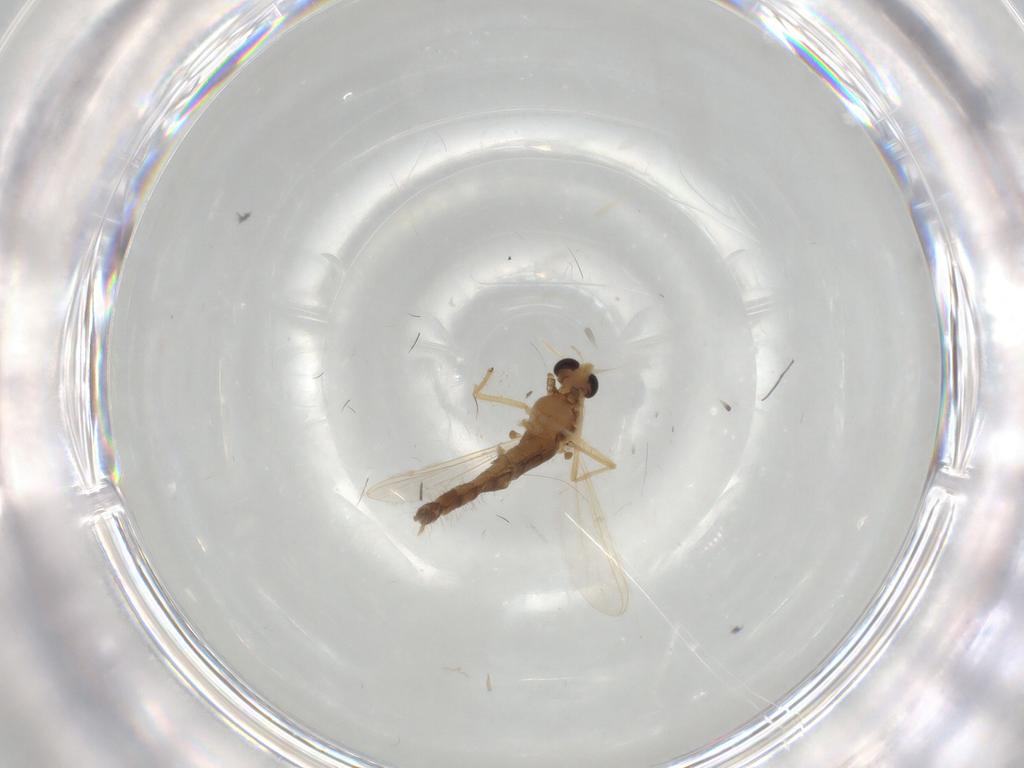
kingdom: Animalia
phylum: Arthropoda
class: Insecta
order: Diptera
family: Chironomidae
